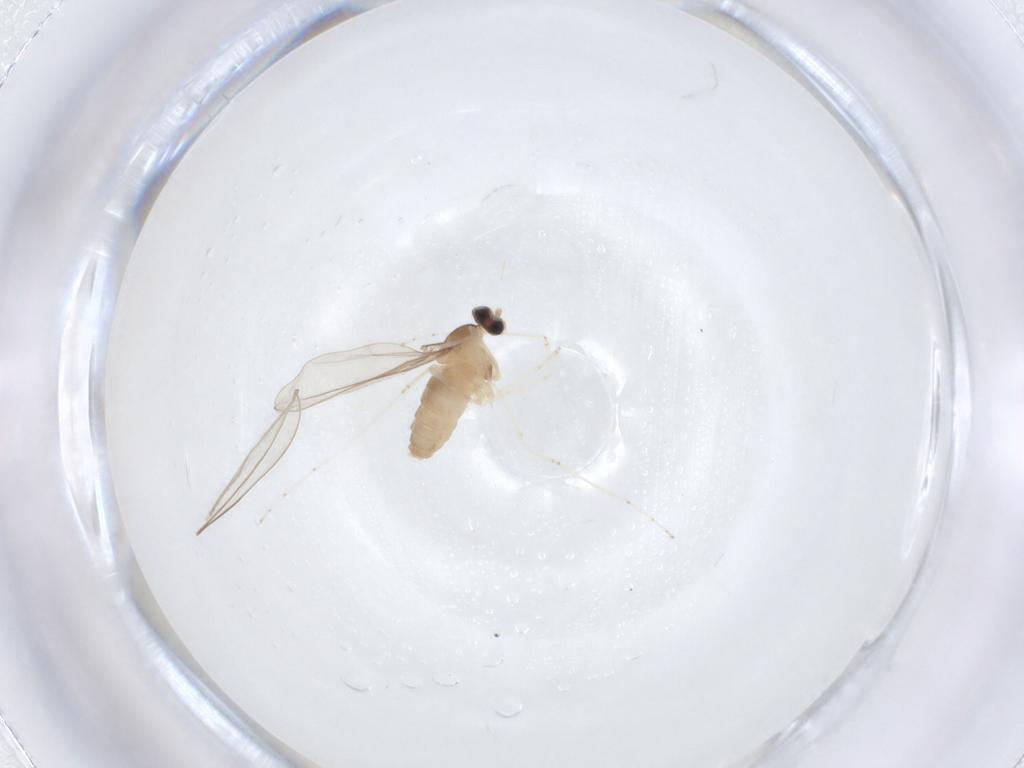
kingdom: Animalia
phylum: Arthropoda
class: Insecta
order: Diptera
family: Cecidomyiidae
